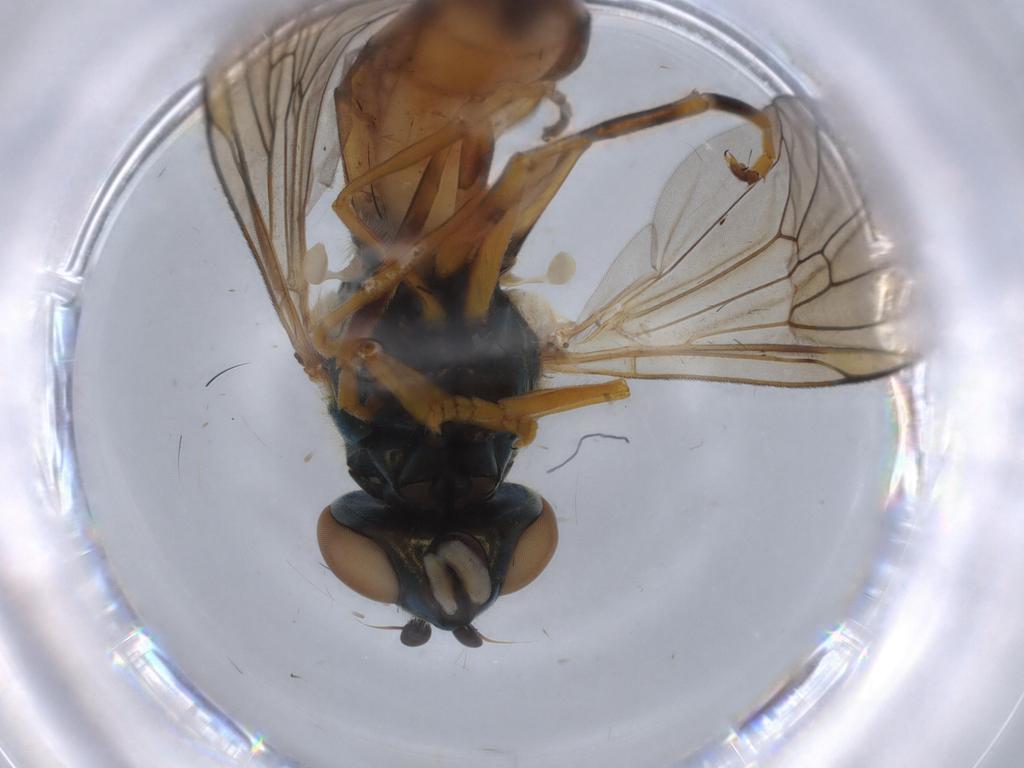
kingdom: Animalia
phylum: Arthropoda
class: Insecta
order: Diptera
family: Syrphidae
